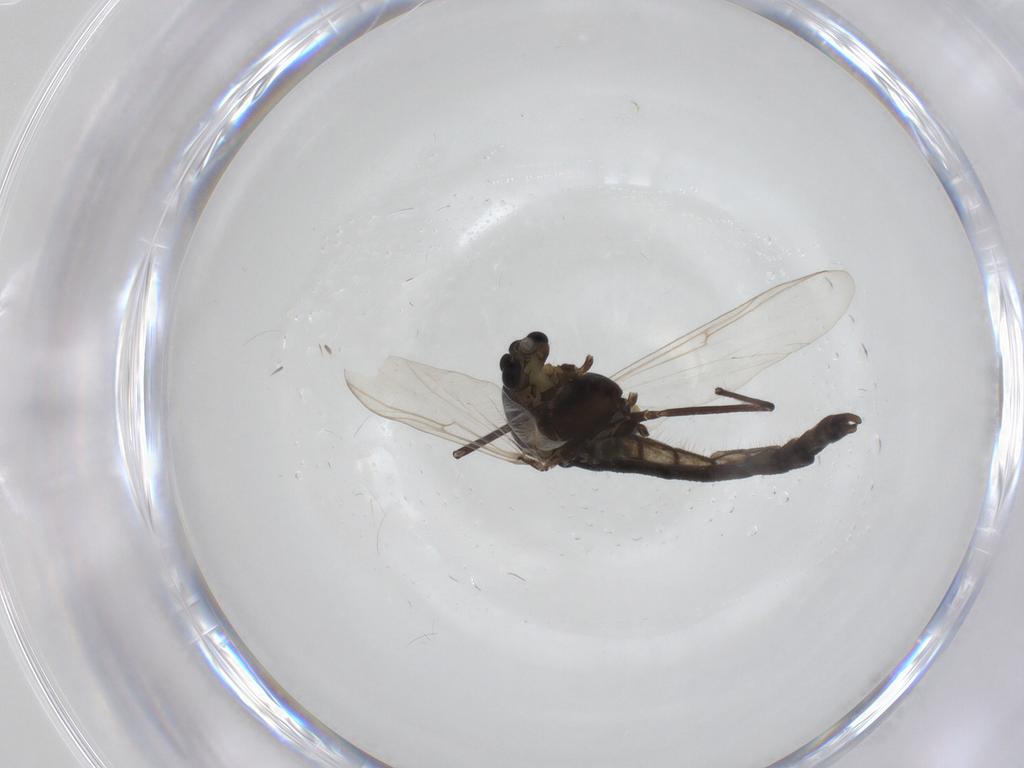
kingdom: Animalia
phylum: Arthropoda
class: Insecta
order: Diptera
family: Chironomidae
